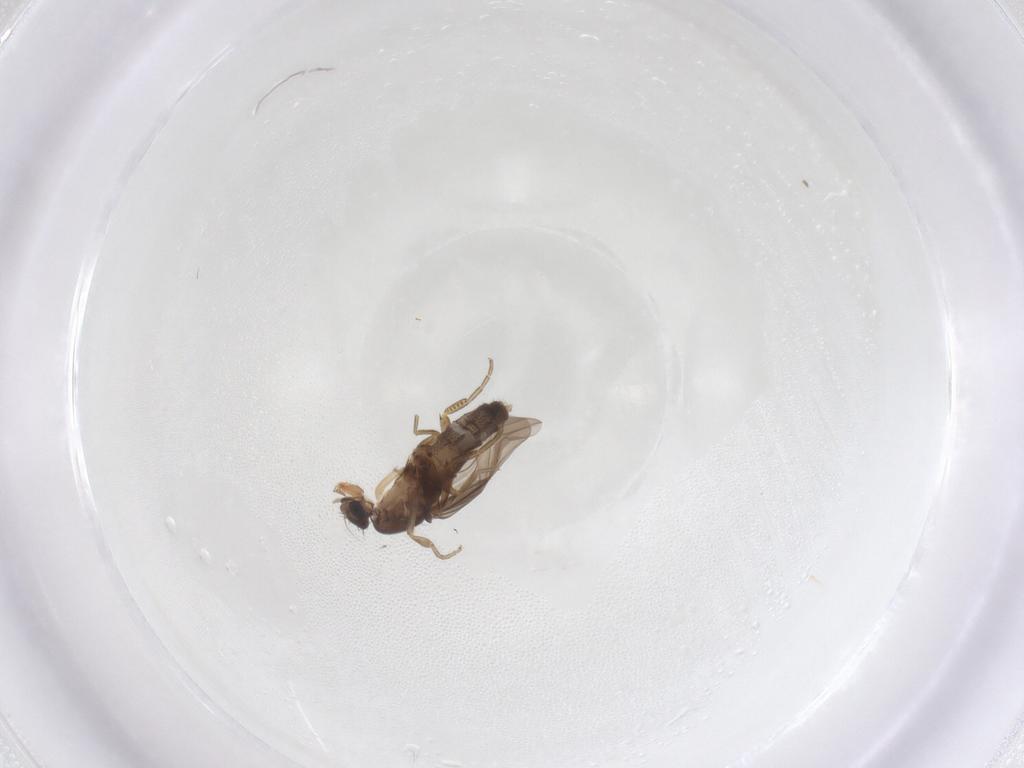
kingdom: Animalia
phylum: Arthropoda
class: Insecta
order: Diptera
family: Phoridae
